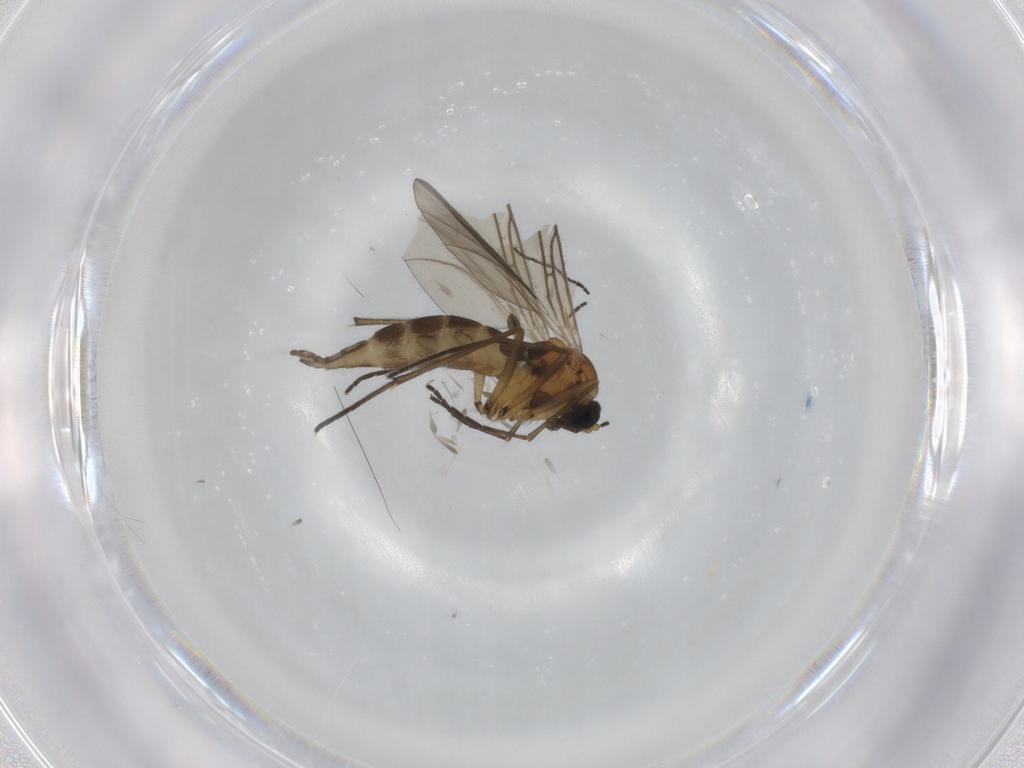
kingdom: Animalia
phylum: Arthropoda
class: Insecta
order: Diptera
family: Sciaridae
